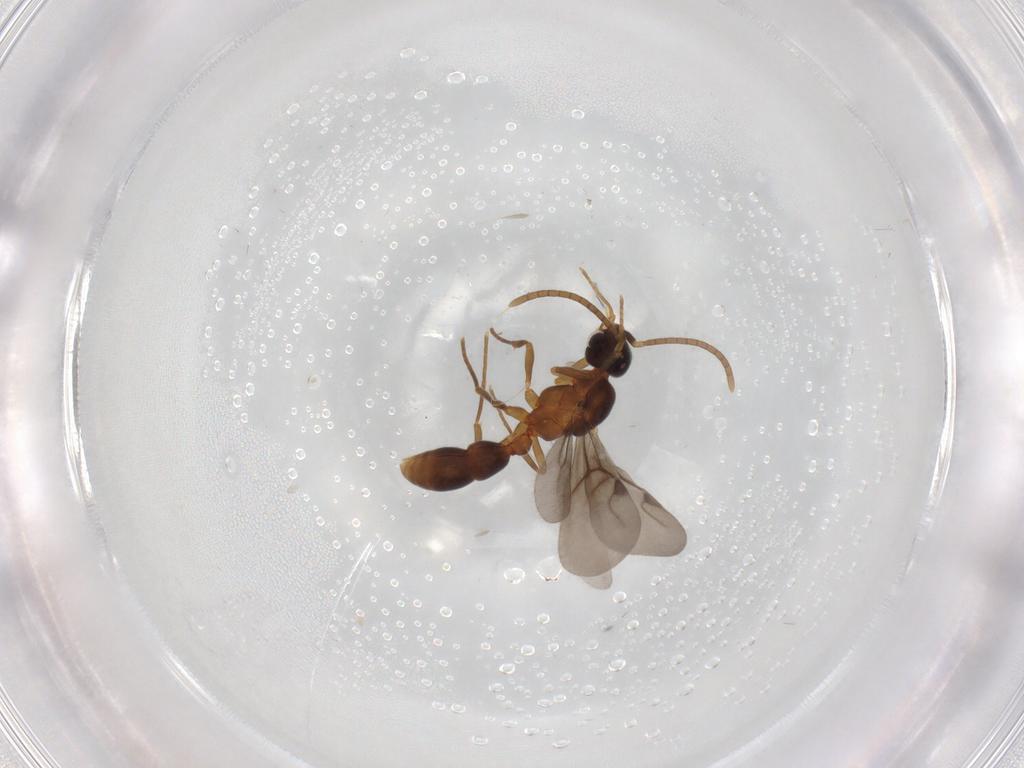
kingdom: Animalia
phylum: Arthropoda
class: Insecta
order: Hymenoptera
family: Formicidae
